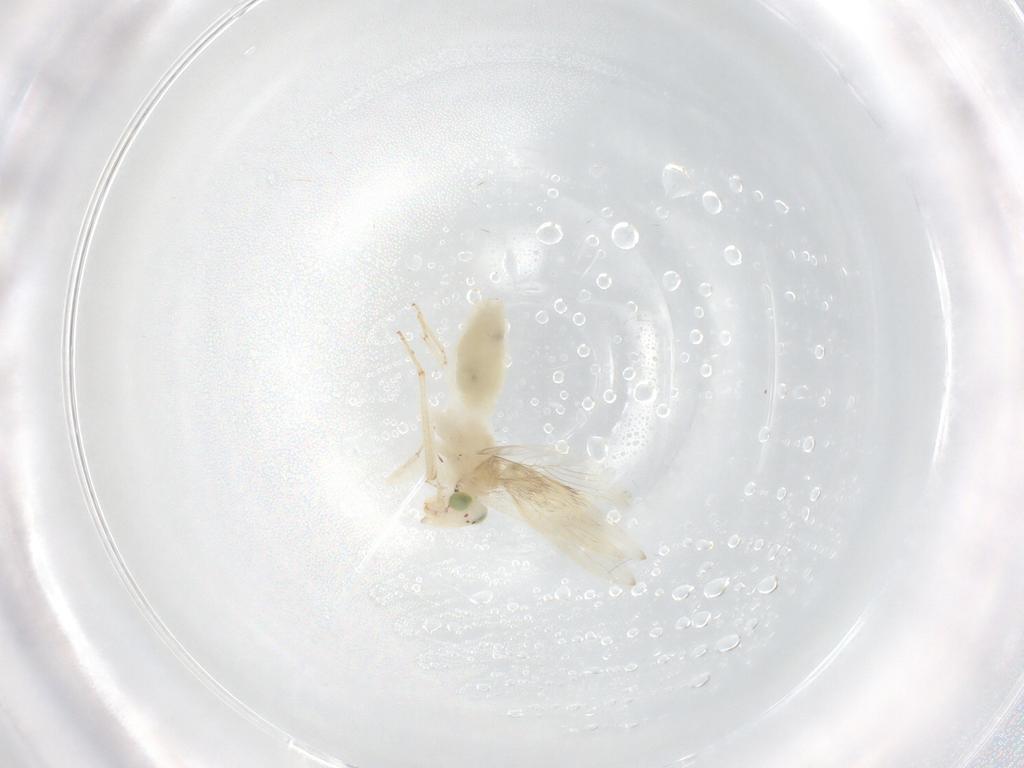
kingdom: Animalia
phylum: Arthropoda
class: Insecta
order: Psocodea
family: Lepidopsocidae
